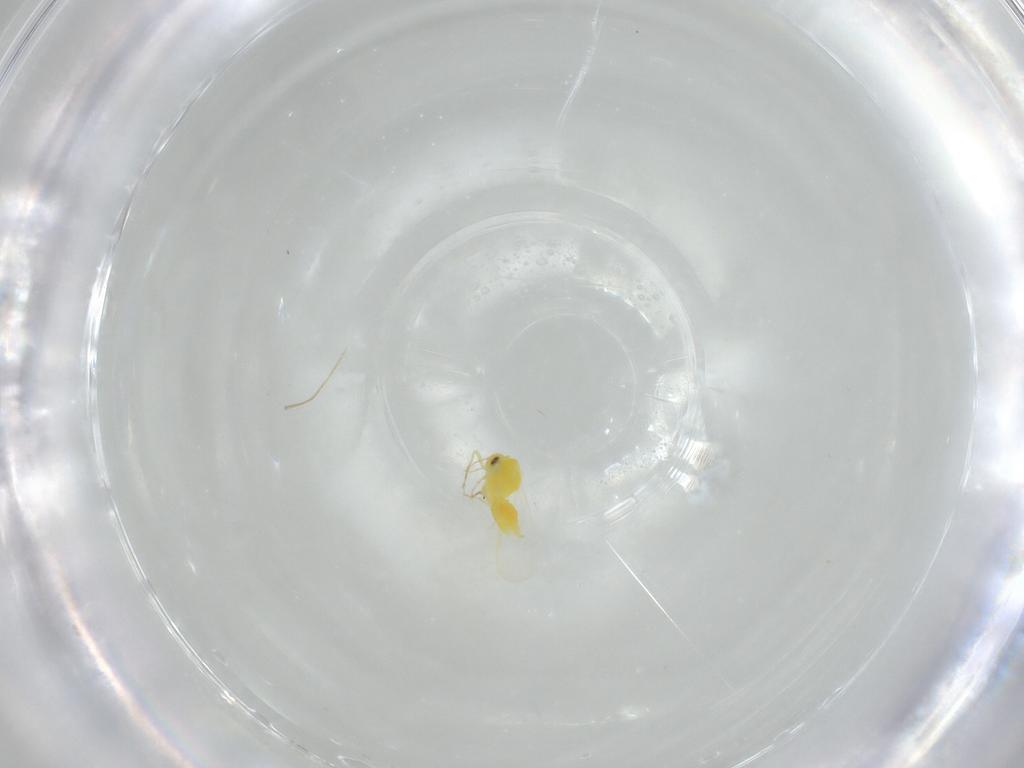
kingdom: Animalia
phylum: Arthropoda
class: Insecta
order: Hemiptera
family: Aleyrodidae
